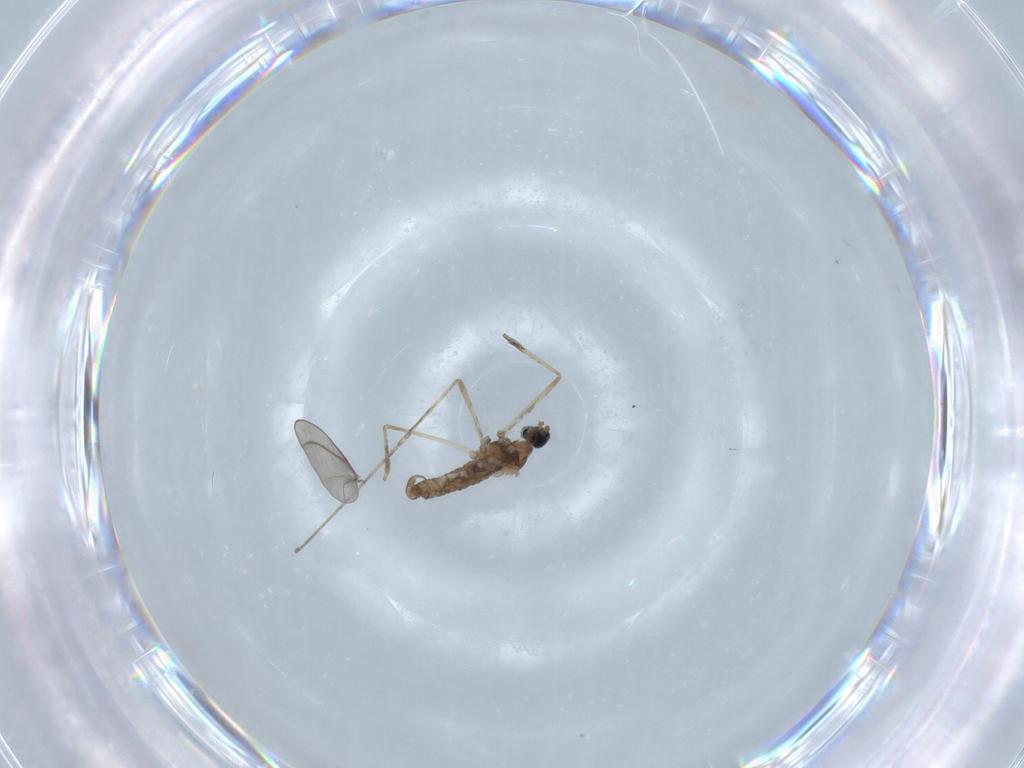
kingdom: Animalia
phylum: Arthropoda
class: Insecta
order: Diptera
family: Cecidomyiidae
